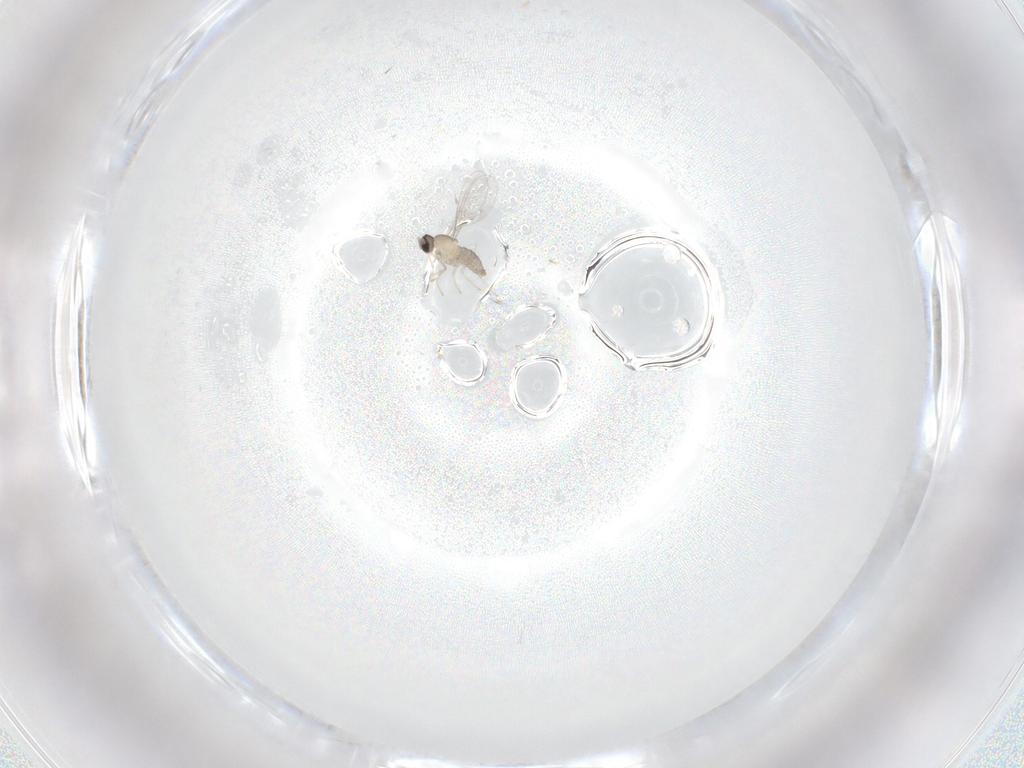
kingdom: Animalia
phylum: Arthropoda
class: Insecta
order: Diptera
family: Cecidomyiidae
